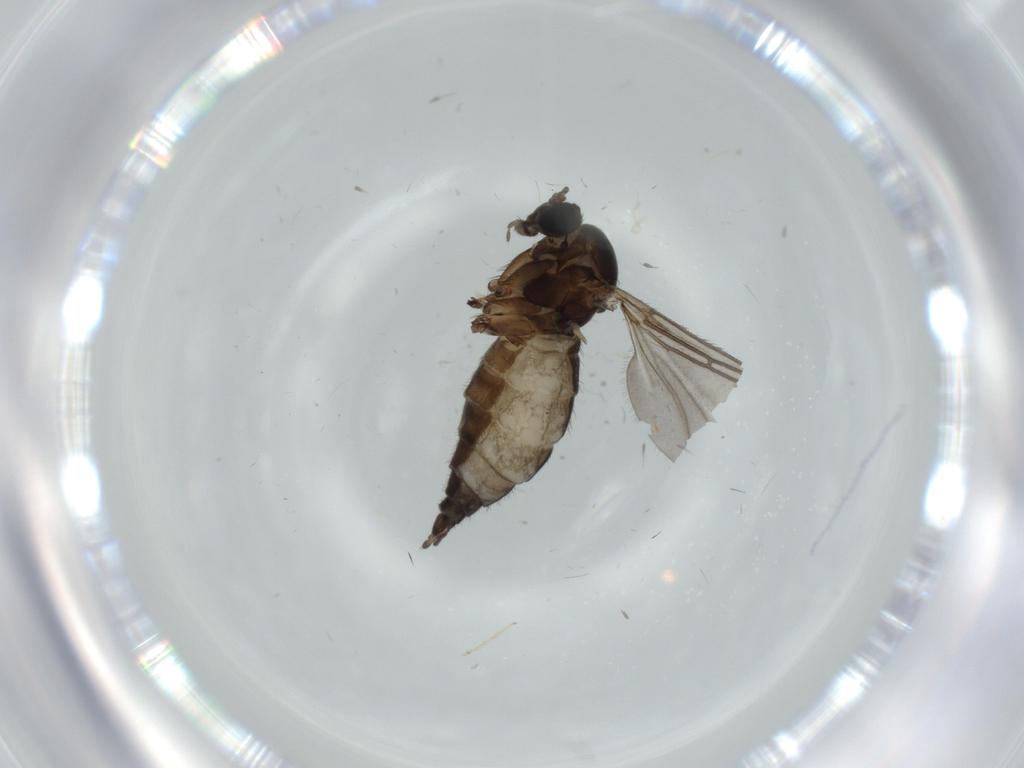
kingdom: Animalia
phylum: Arthropoda
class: Insecta
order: Diptera
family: Sciaridae
